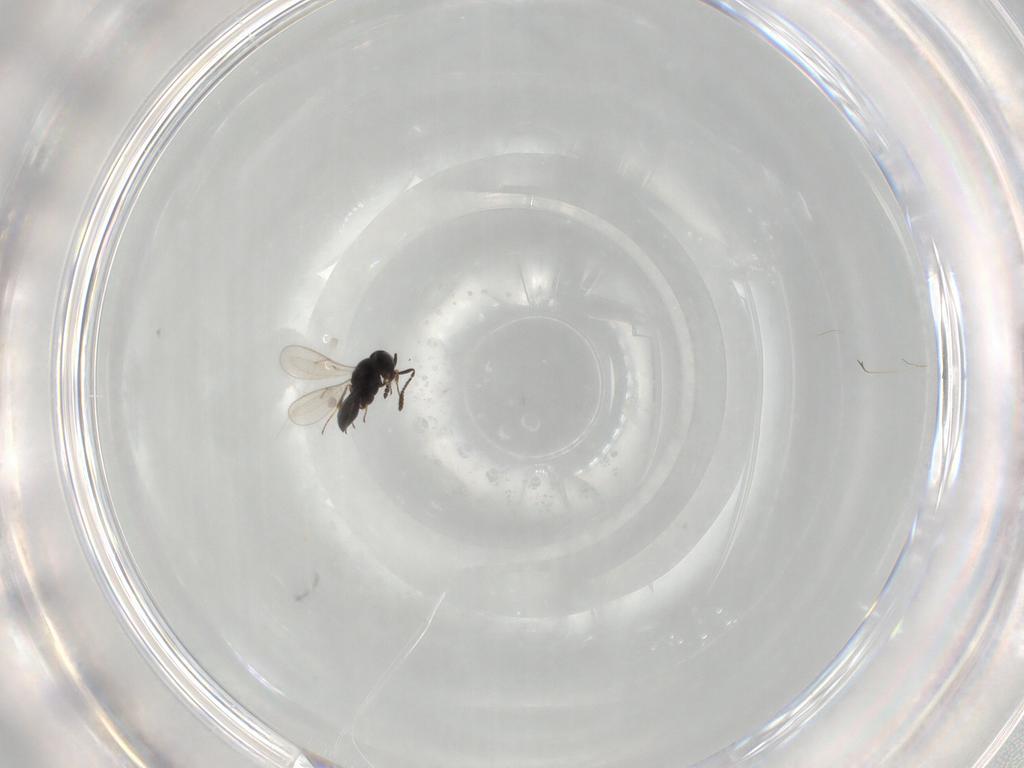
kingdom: Animalia
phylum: Arthropoda
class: Insecta
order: Hymenoptera
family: Scelionidae
